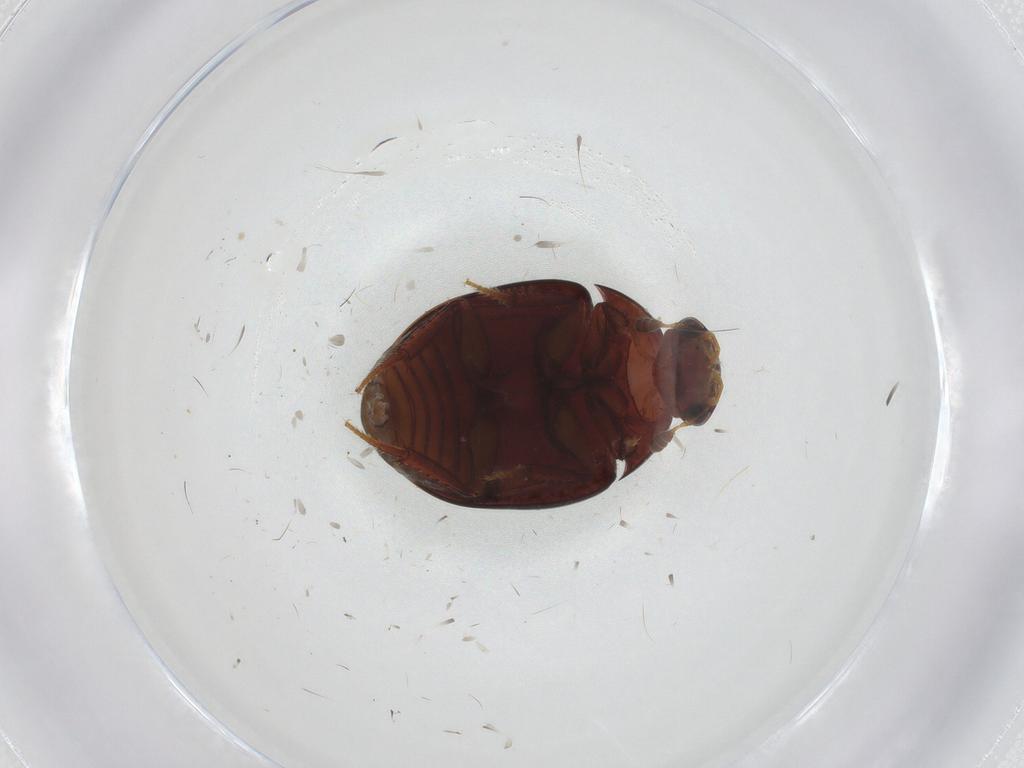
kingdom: Animalia
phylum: Arthropoda
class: Insecta
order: Coleoptera
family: Hydrophilidae
